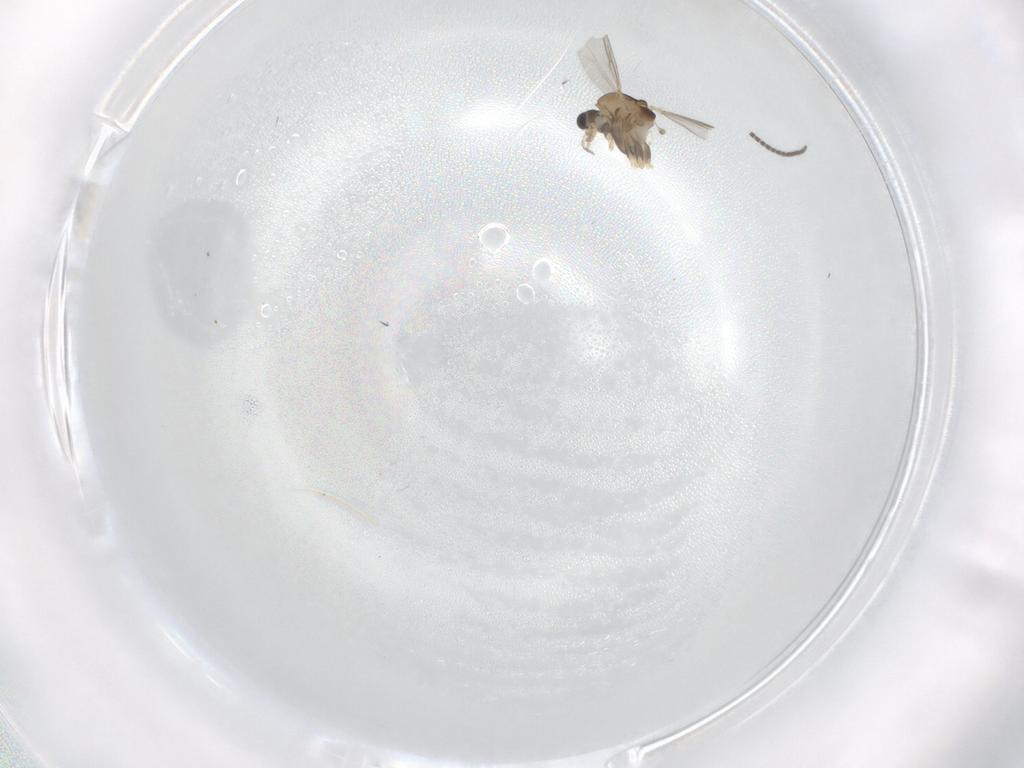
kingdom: Animalia
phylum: Arthropoda
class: Insecta
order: Diptera
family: Chironomidae
